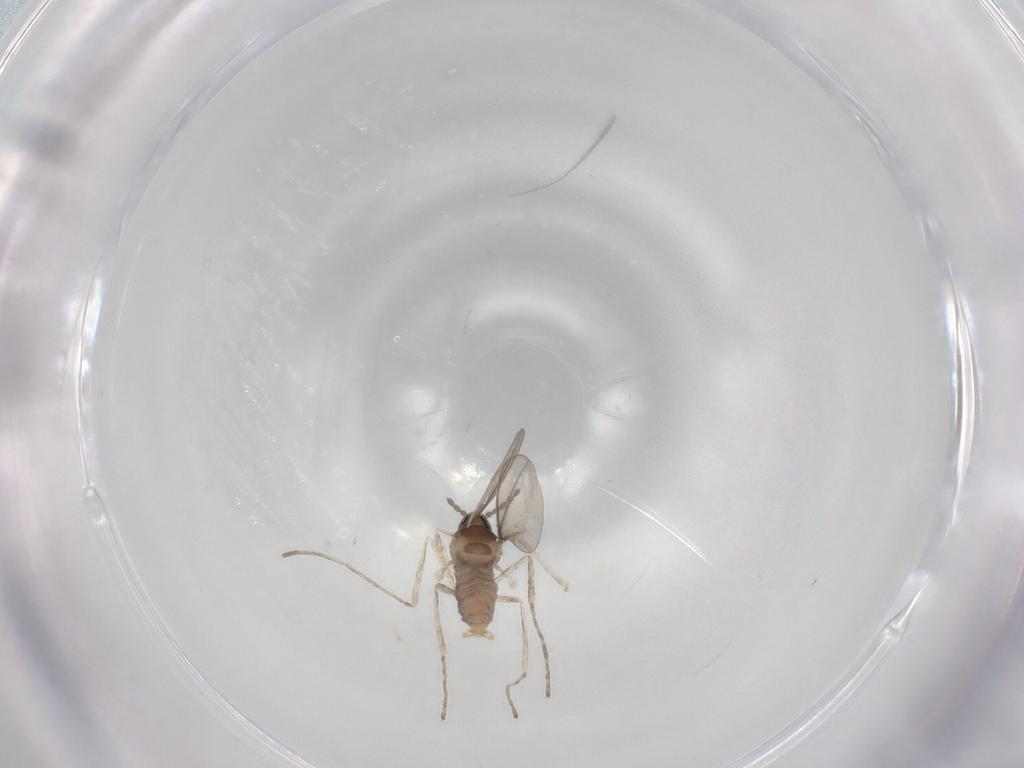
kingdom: Animalia
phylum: Arthropoda
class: Insecta
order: Diptera
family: Cecidomyiidae
